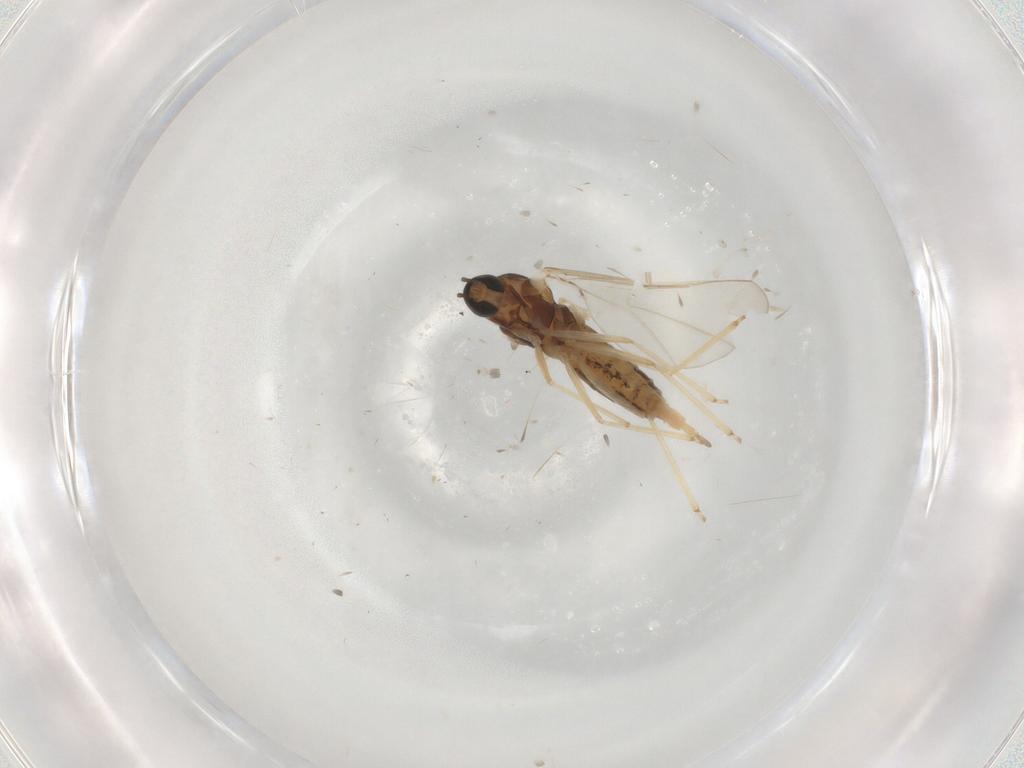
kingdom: Animalia
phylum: Arthropoda
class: Insecta
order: Diptera
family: Cecidomyiidae
